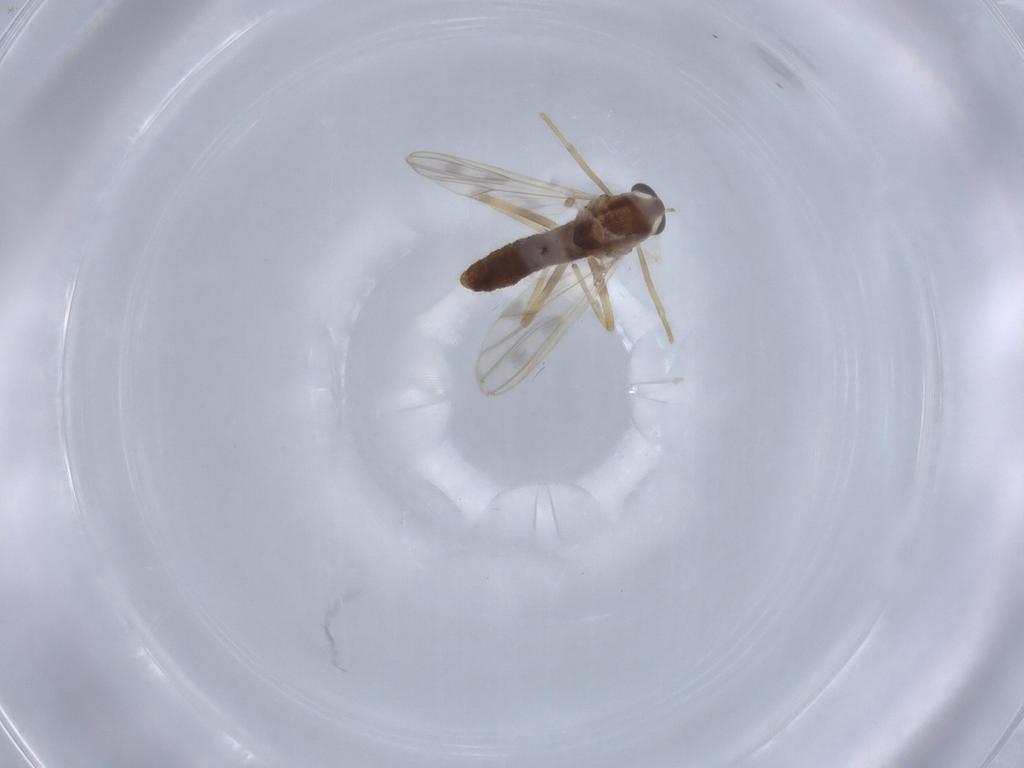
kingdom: Animalia
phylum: Arthropoda
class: Insecta
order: Diptera
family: Chironomidae
